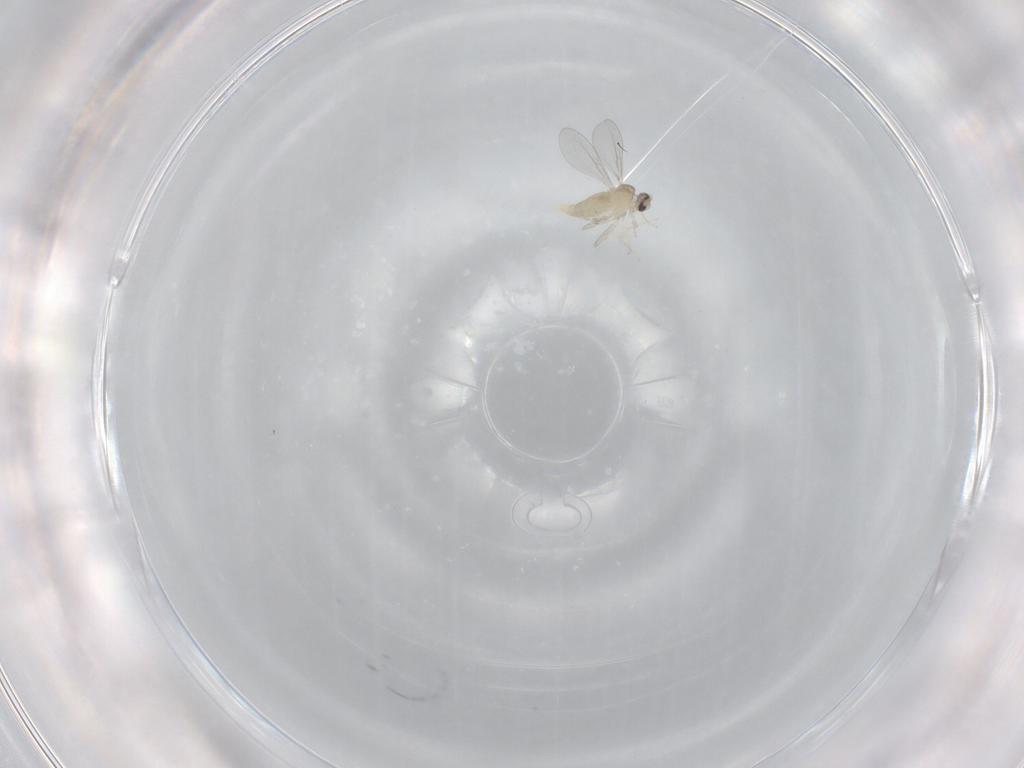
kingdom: Animalia
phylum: Arthropoda
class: Insecta
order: Diptera
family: Cecidomyiidae
